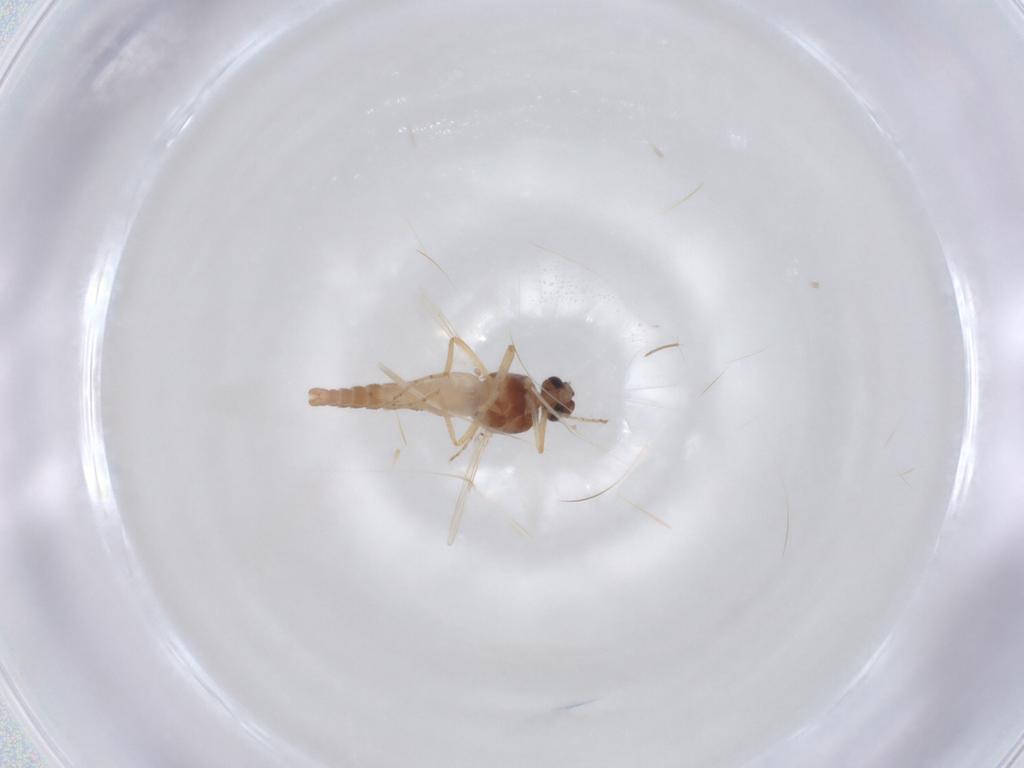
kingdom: Animalia
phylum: Arthropoda
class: Insecta
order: Diptera
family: Ceratopogonidae
